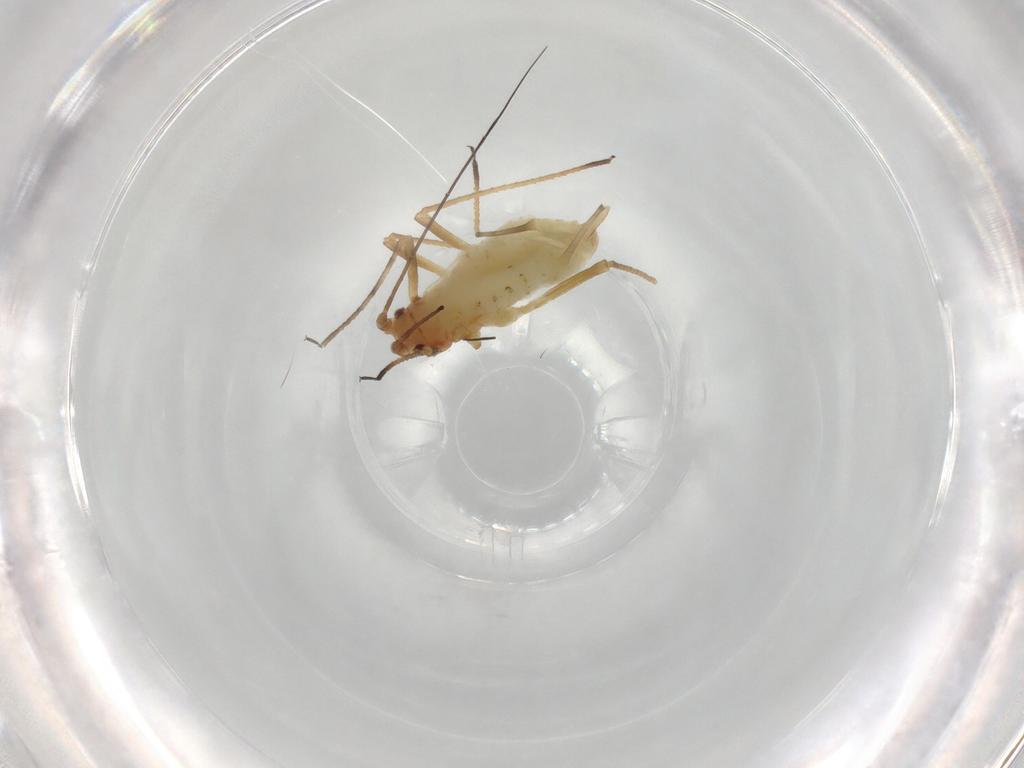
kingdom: Animalia
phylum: Arthropoda
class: Insecta
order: Hemiptera
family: Aphididae
